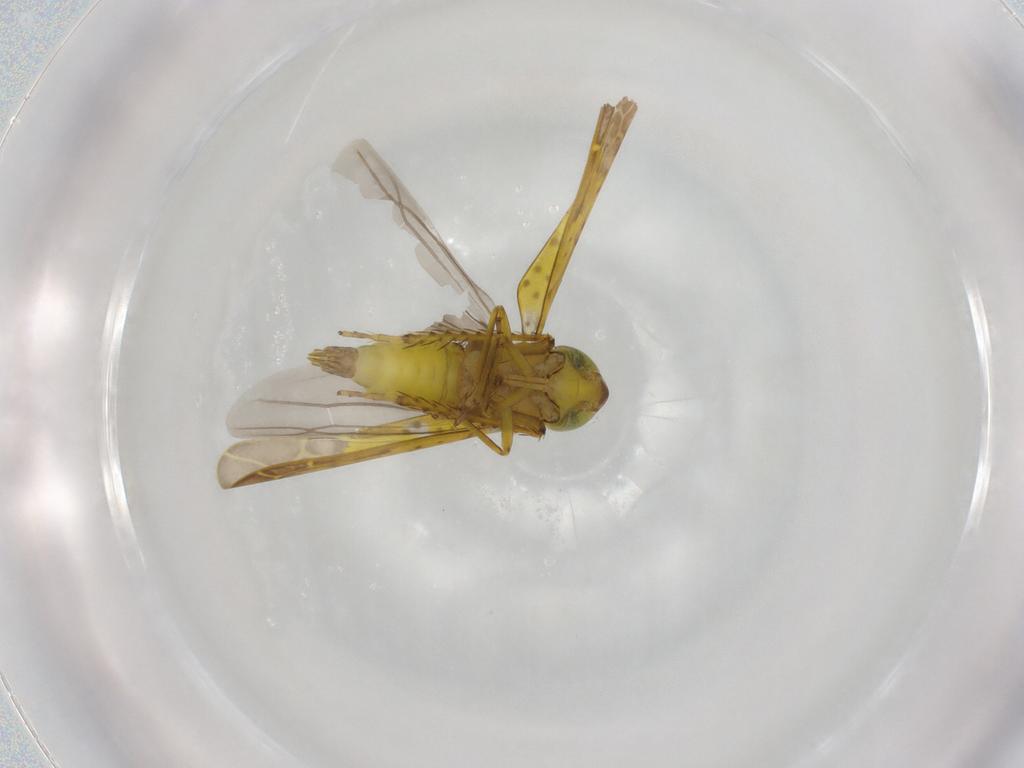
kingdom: Animalia
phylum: Arthropoda
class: Insecta
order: Hemiptera
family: Cicadellidae
